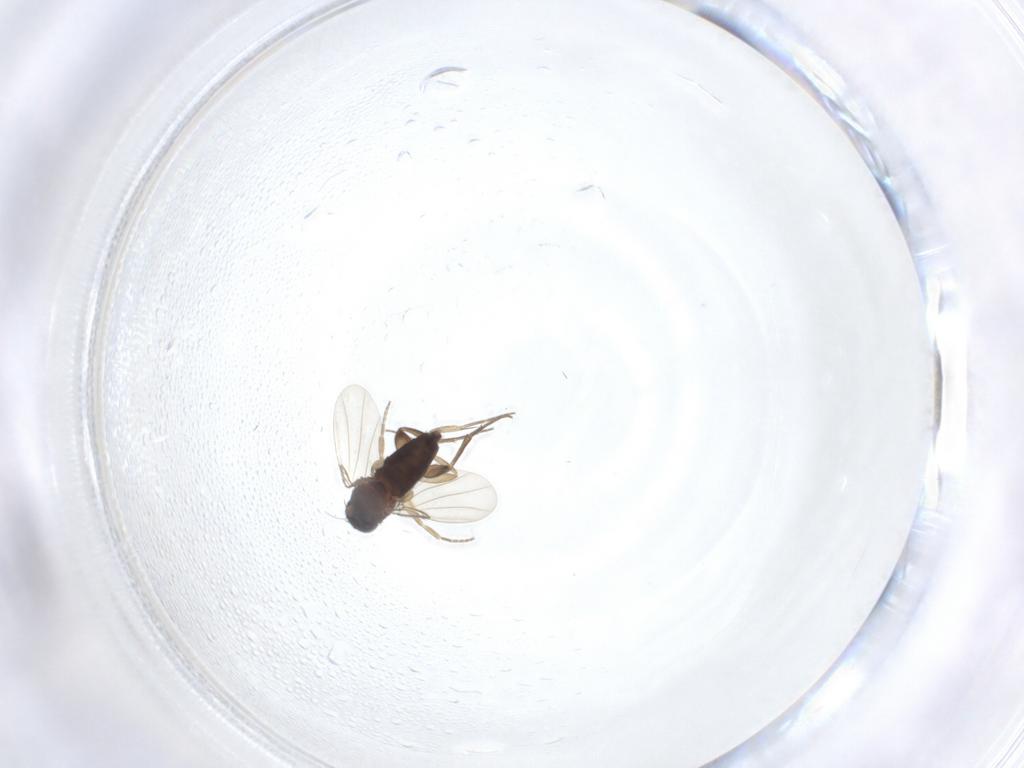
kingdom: Animalia
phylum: Arthropoda
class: Insecta
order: Diptera
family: Phoridae
